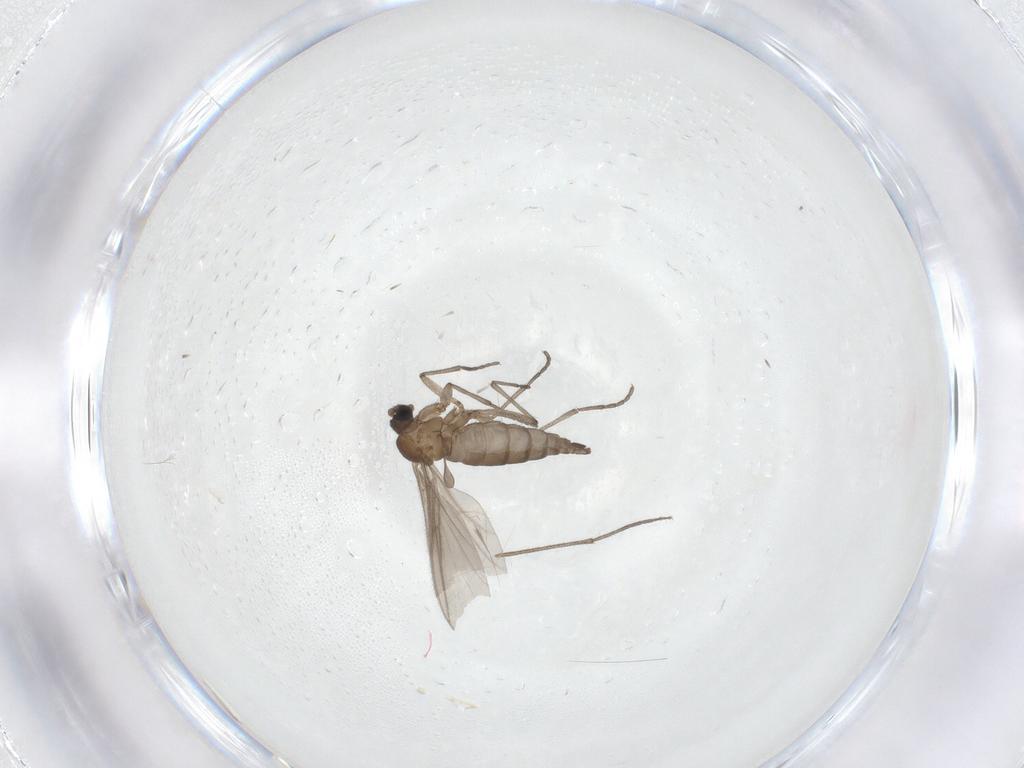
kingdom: Animalia
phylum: Arthropoda
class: Insecta
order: Diptera
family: Sciaridae
